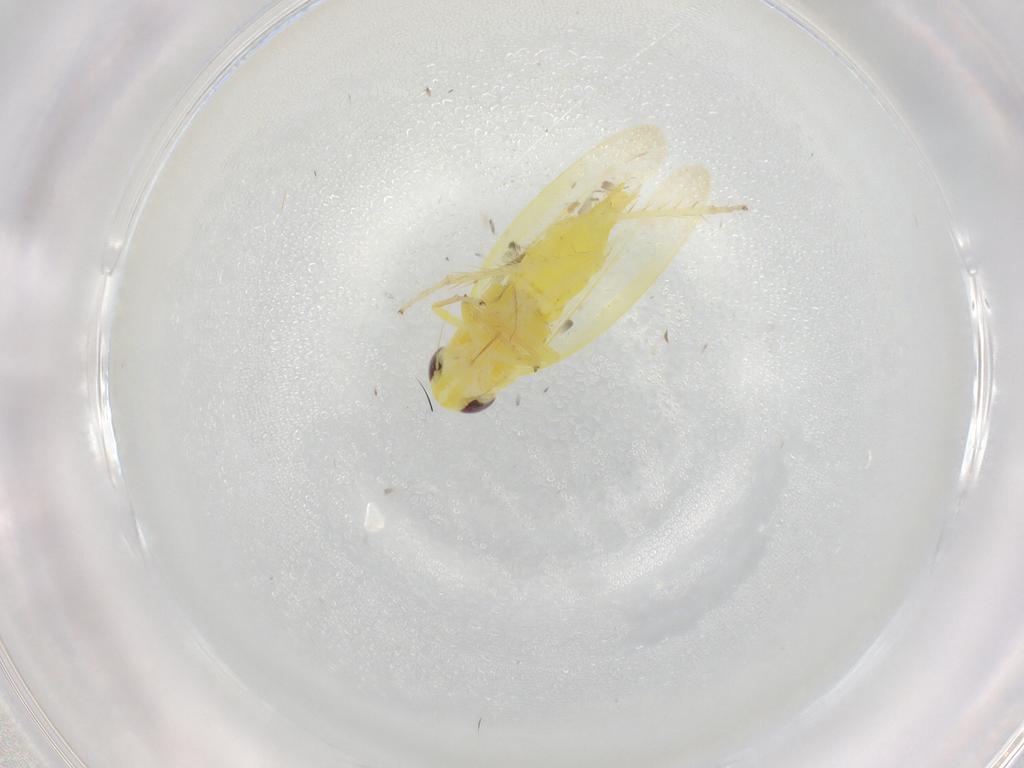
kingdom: Animalia
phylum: Arthropoda
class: Insecta
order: Hemiptera
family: Cicadellidae
